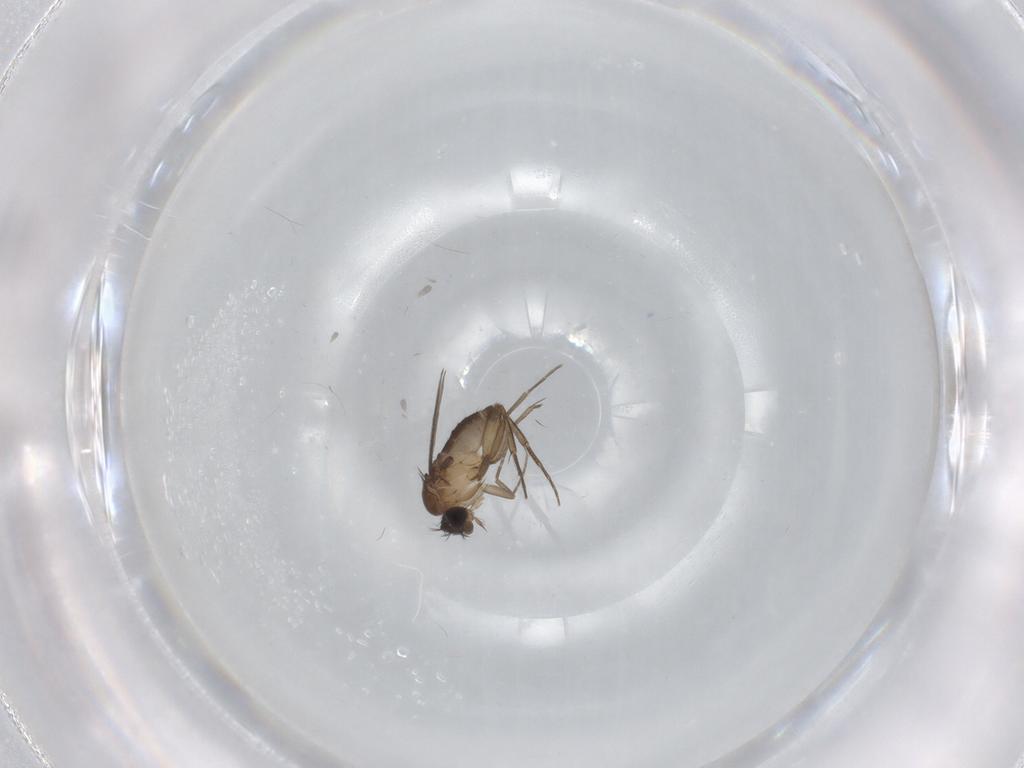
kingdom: Animalia
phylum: Arthropoda
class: Insecta
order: Diptera
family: Phoridae
